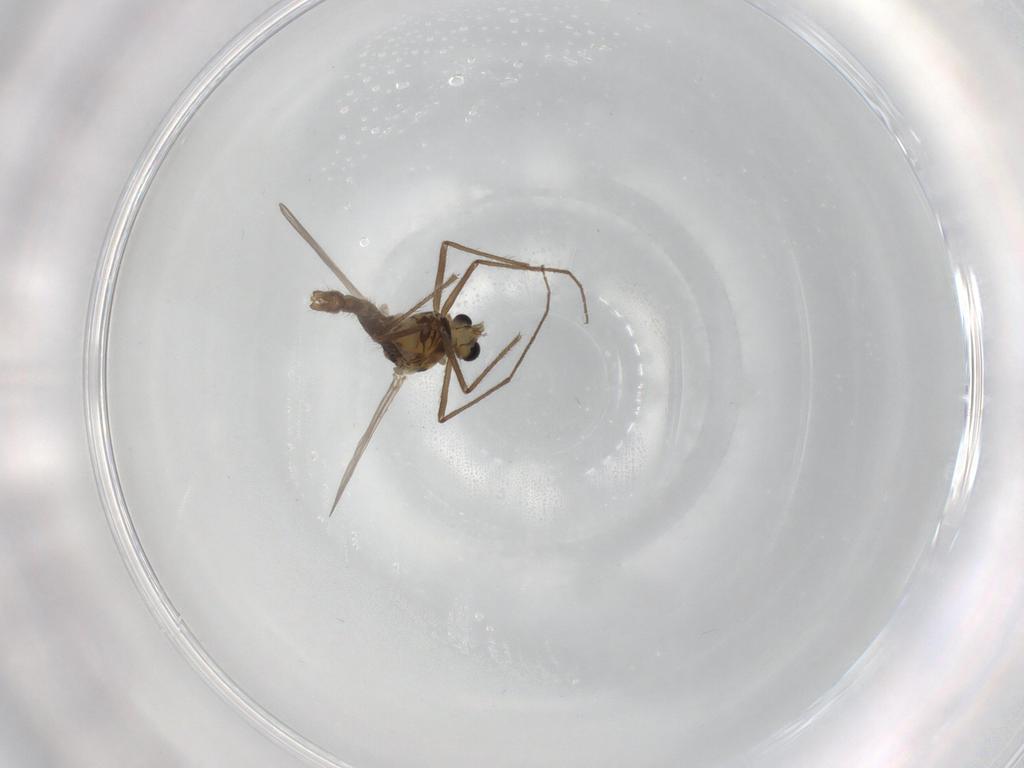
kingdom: Animalia
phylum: Arthropoda
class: Insecta
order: Diptera
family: Chironomidae
